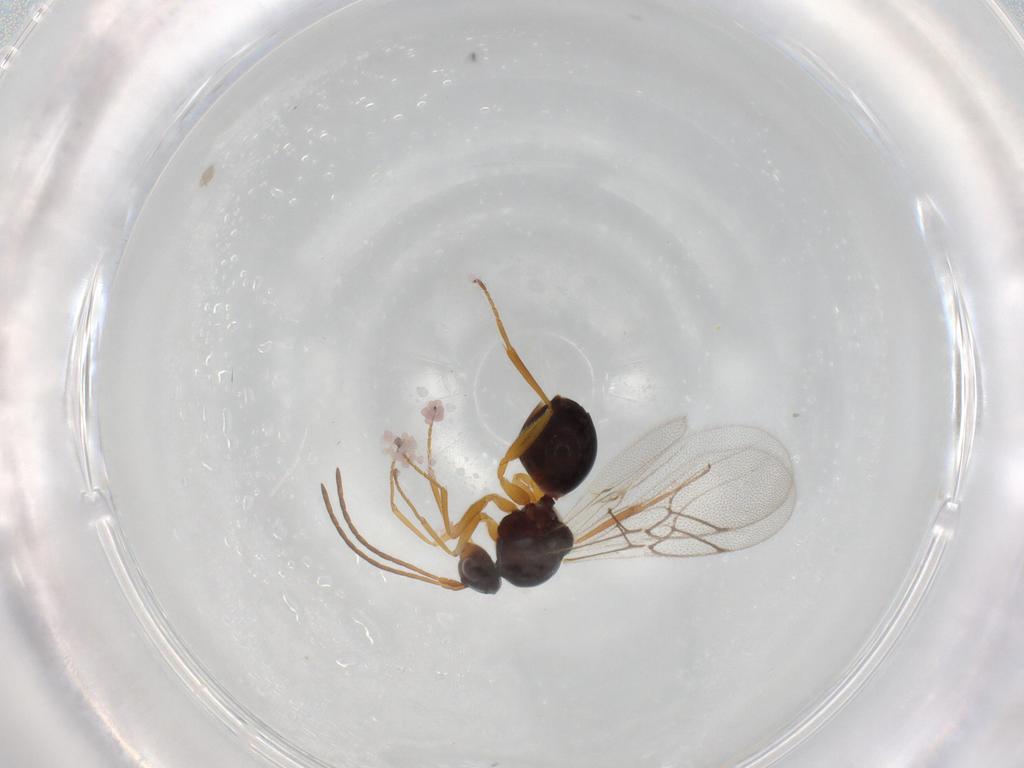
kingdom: Animalia
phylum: Arthropoda
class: Insecta
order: Hymenoptera
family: Figitidae
